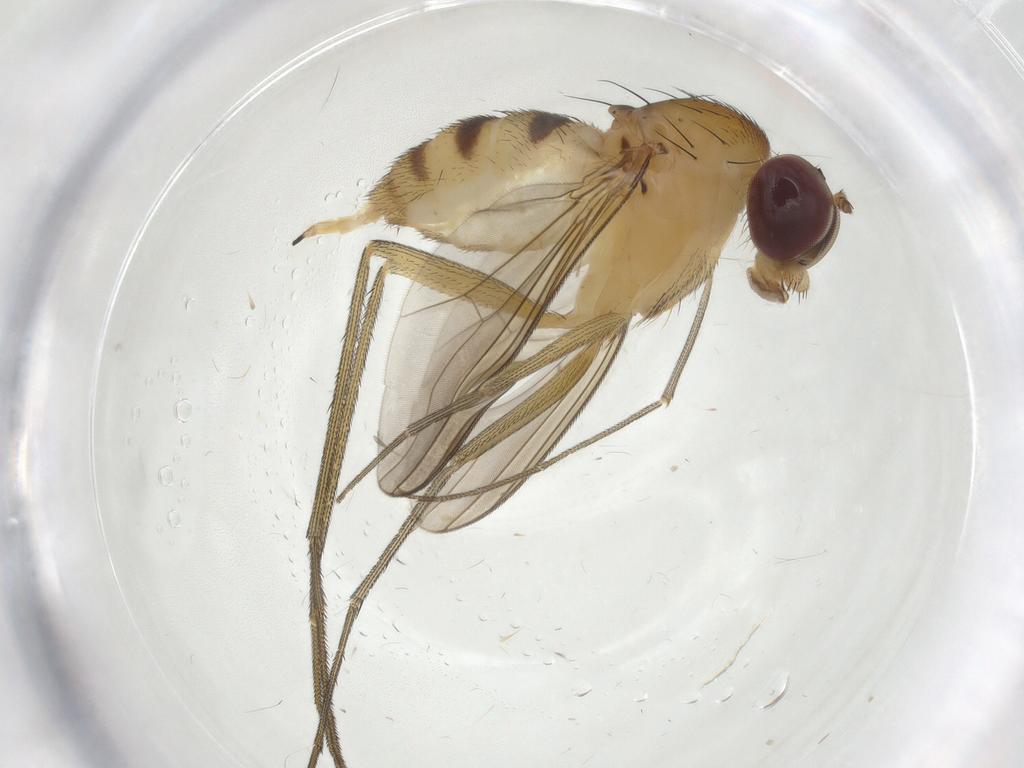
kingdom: Animalia
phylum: Arthropoda
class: Insecta
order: Diptera
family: Dolichopodidae
